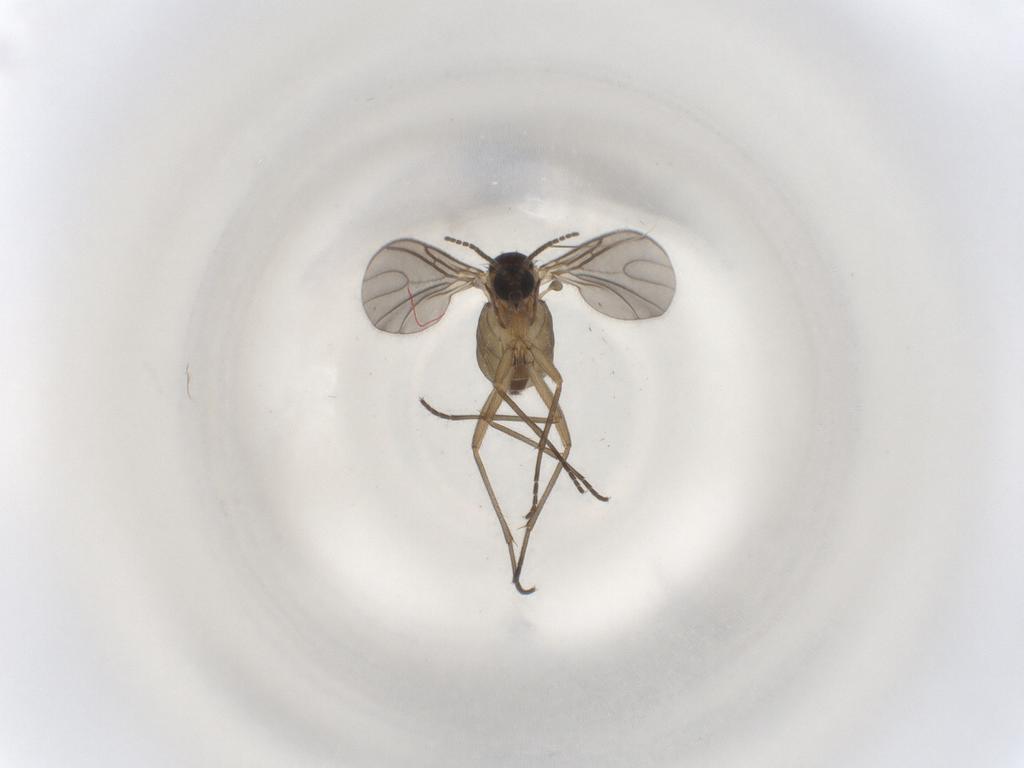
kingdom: Animalia
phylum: Arthropoda
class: Insecta
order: Diptera
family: Sciaridae
